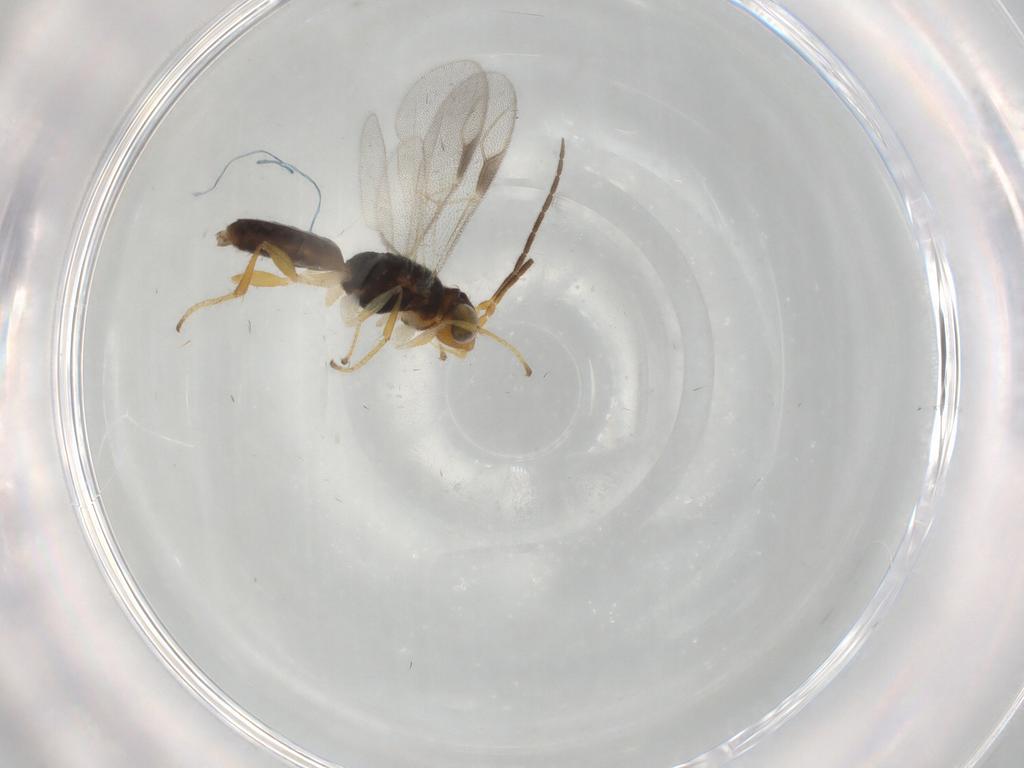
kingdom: Animalia
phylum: Arthropoda
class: Insecta
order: Hymenoptera
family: Dryinidae
